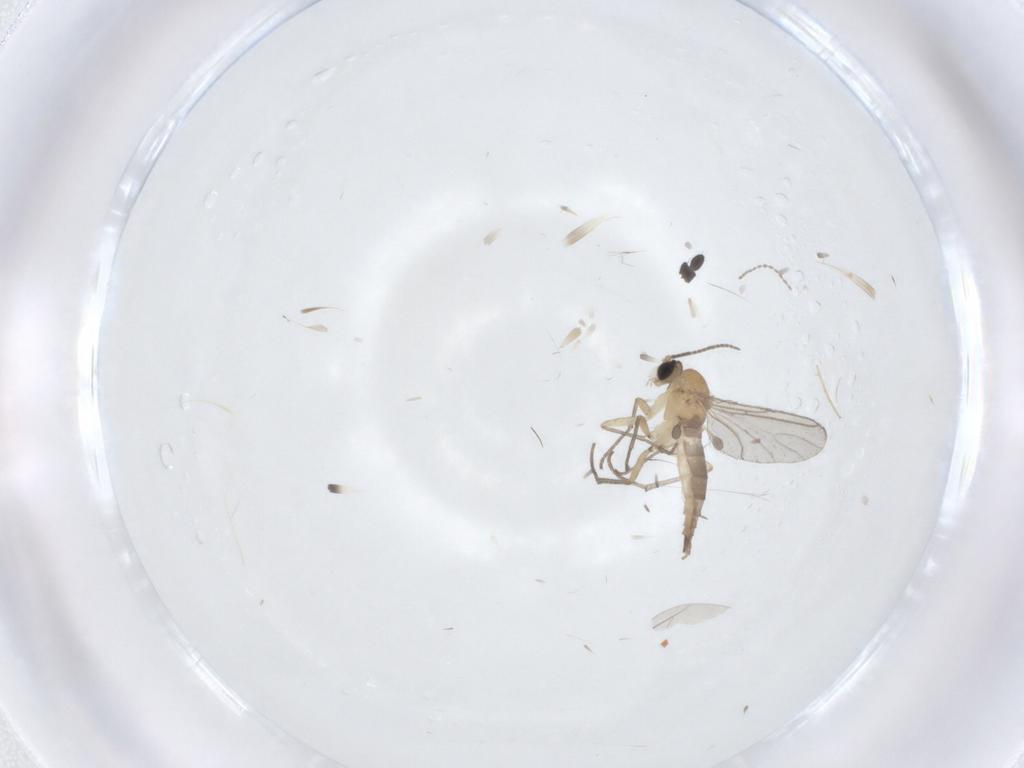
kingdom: Animalia
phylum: Arthropoda
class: Insecta
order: Diptera
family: Sciaridae
